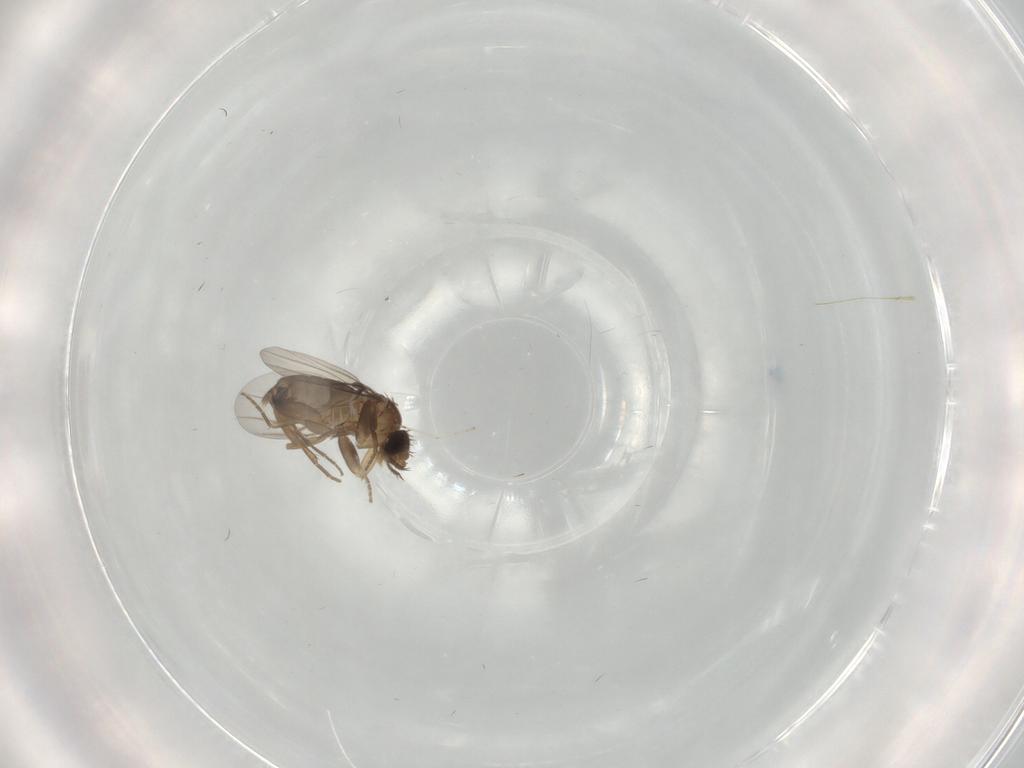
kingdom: Animalia
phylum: Arthropoda
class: Insecta
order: Diptera
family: Phoridae
